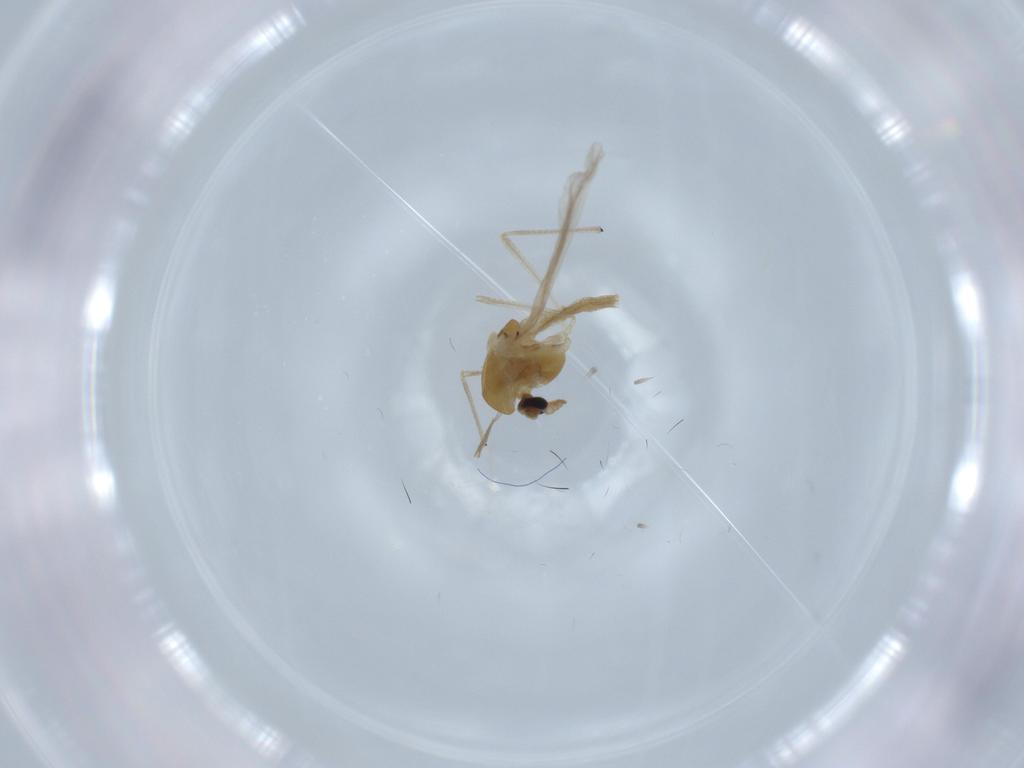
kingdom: Animalia
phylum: Arthropoda
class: Insecta
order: Diptera
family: Chironomidae
